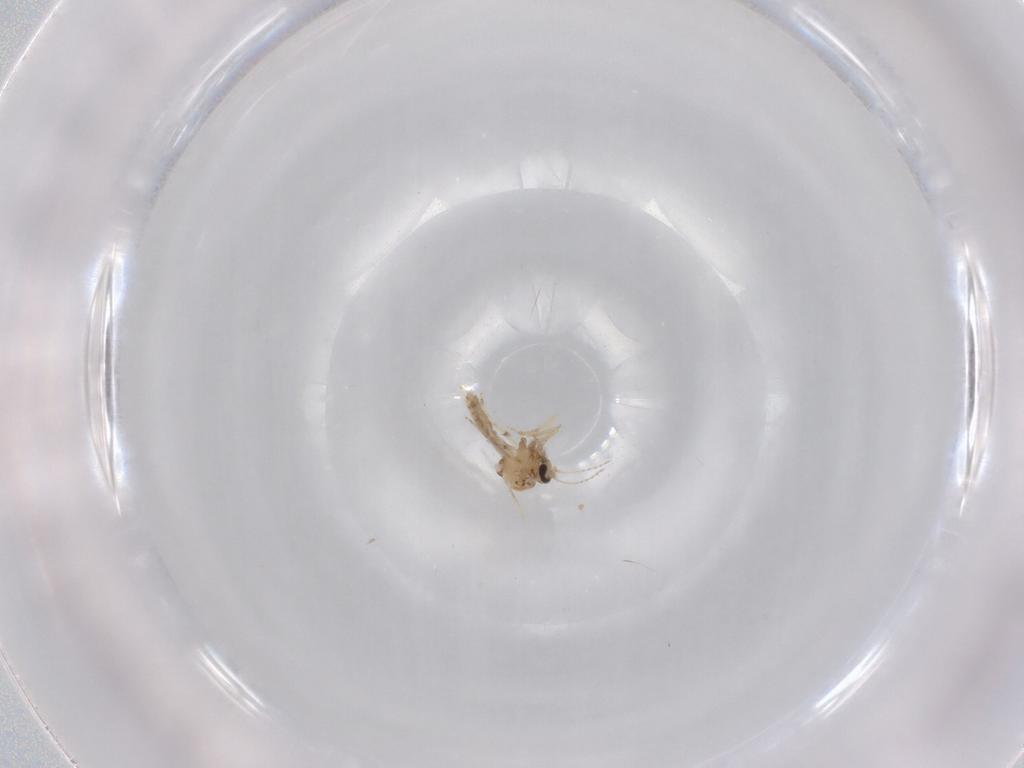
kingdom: Animalia
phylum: Arthropoda
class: Insecta
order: Diptera
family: Ceratopogonidae
